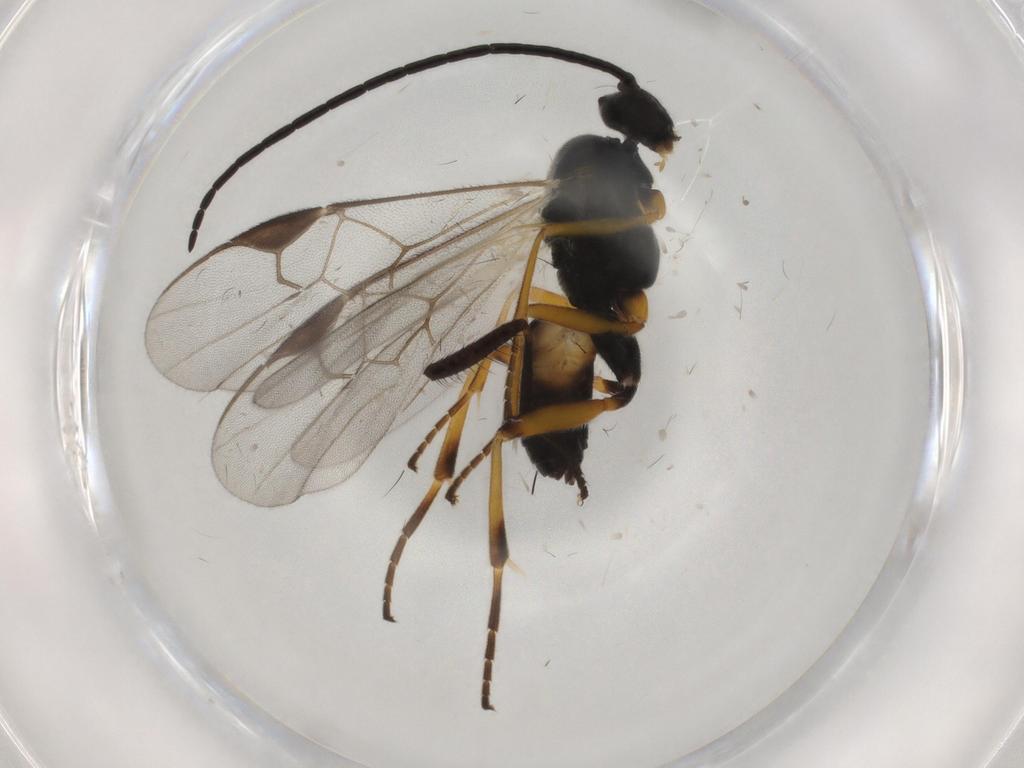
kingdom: Animalia
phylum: Arthropoda
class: Insecta
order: Hymenoptera
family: Braconidae
